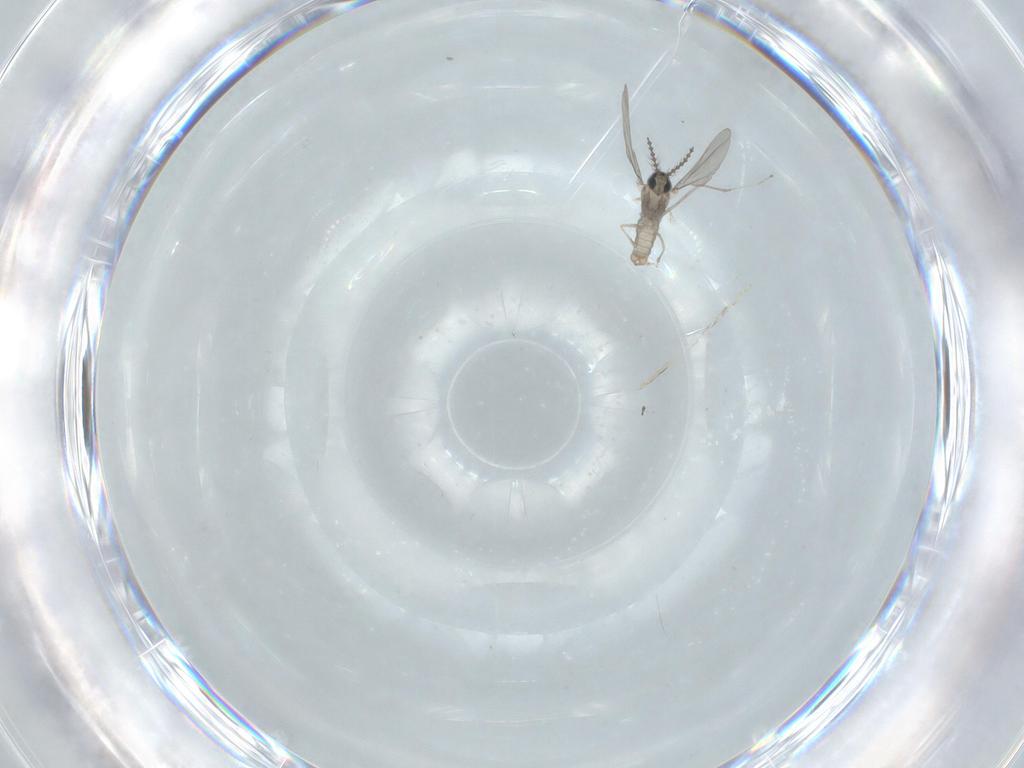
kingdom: Animalia
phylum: Arthropoda
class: Insecta
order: Diptera
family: Cecidomyiidae
